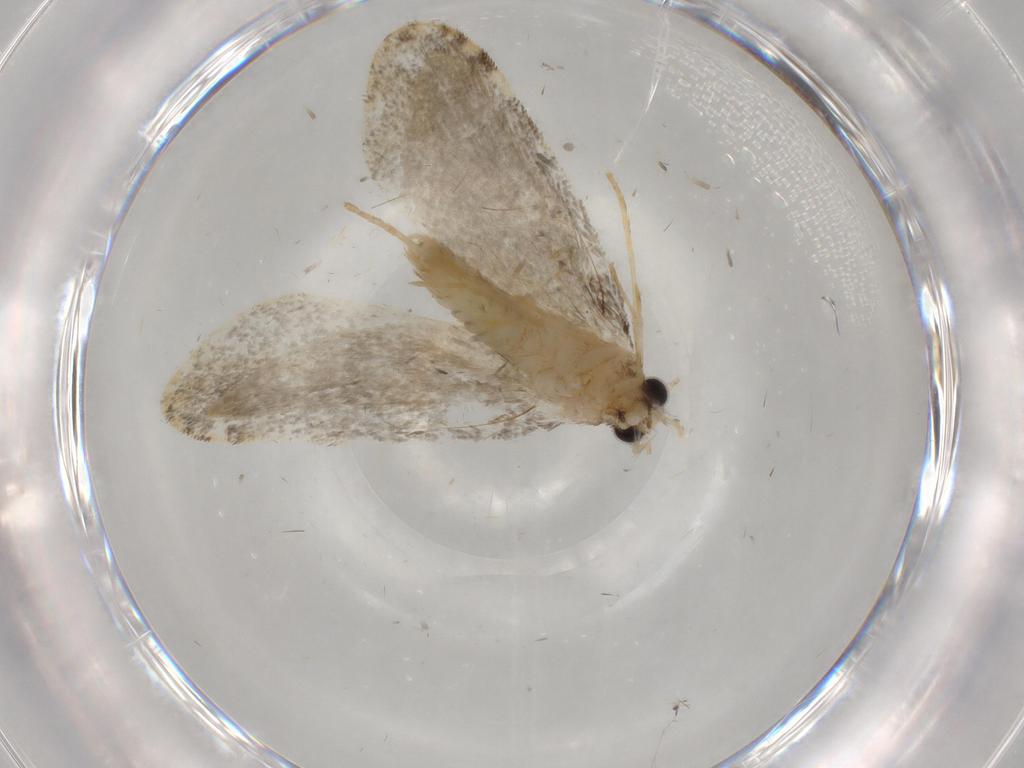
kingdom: Animalia
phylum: Arthropoda
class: Insecta
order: Lepidoptera
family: Psychidae
